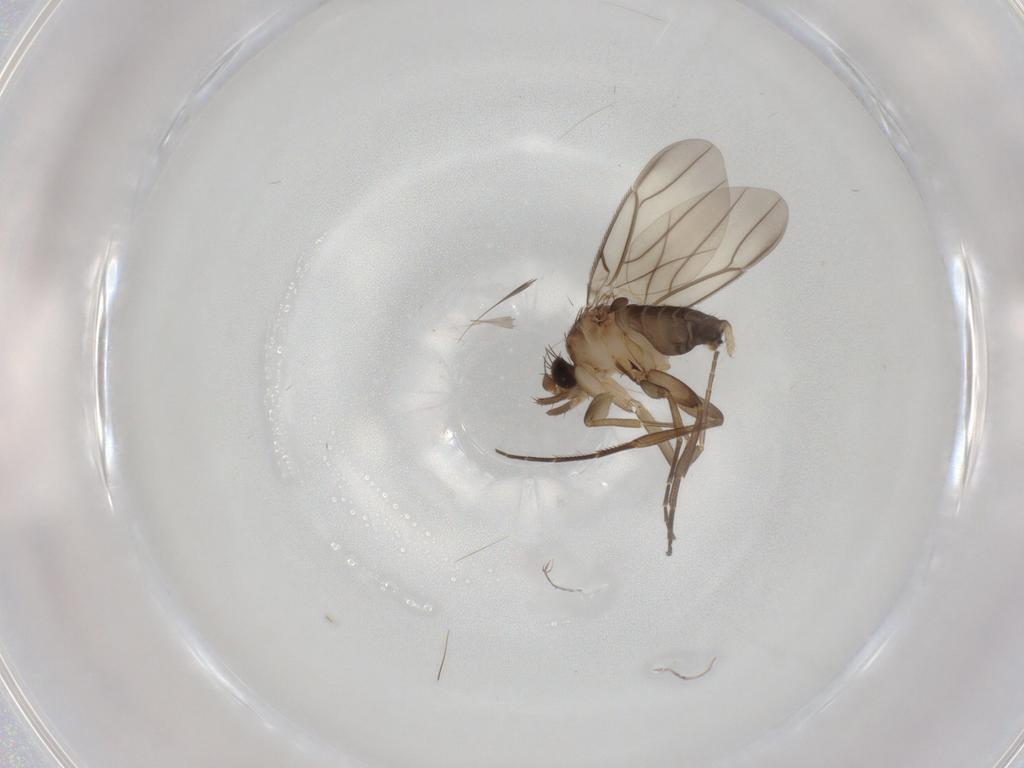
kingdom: Animalia
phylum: Arthropoda
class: Insecta
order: Diptera
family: Phoridae
